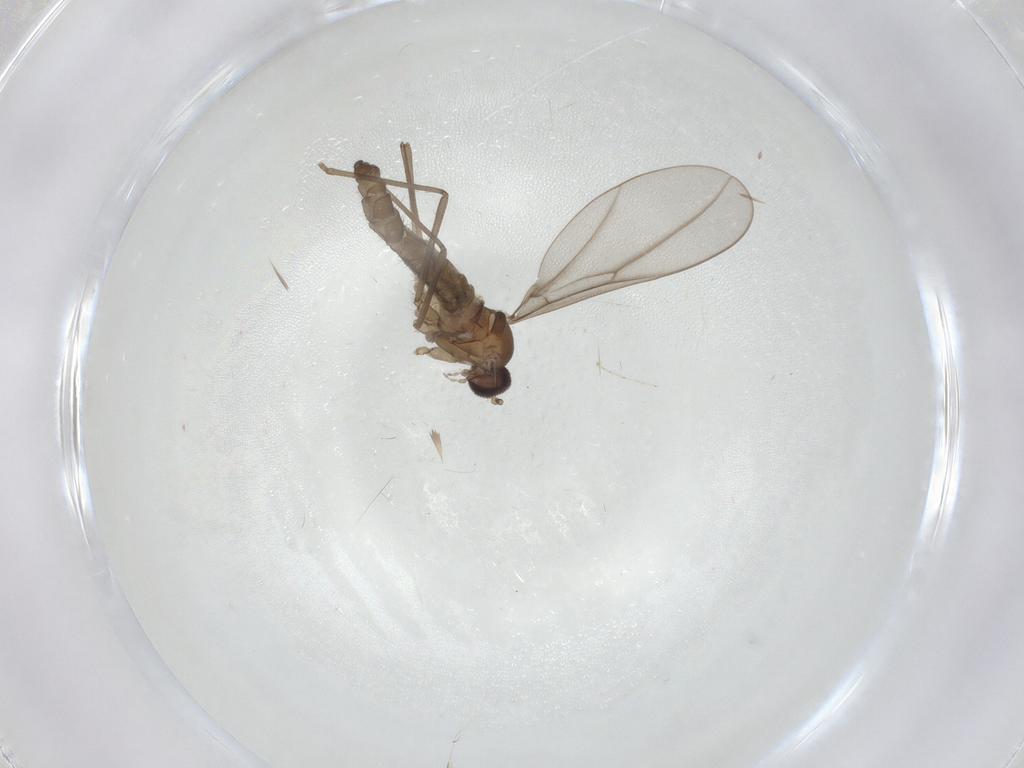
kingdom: Animalia
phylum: Arthropoda
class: Insecta
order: Diptera
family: Cecidomyiidae
